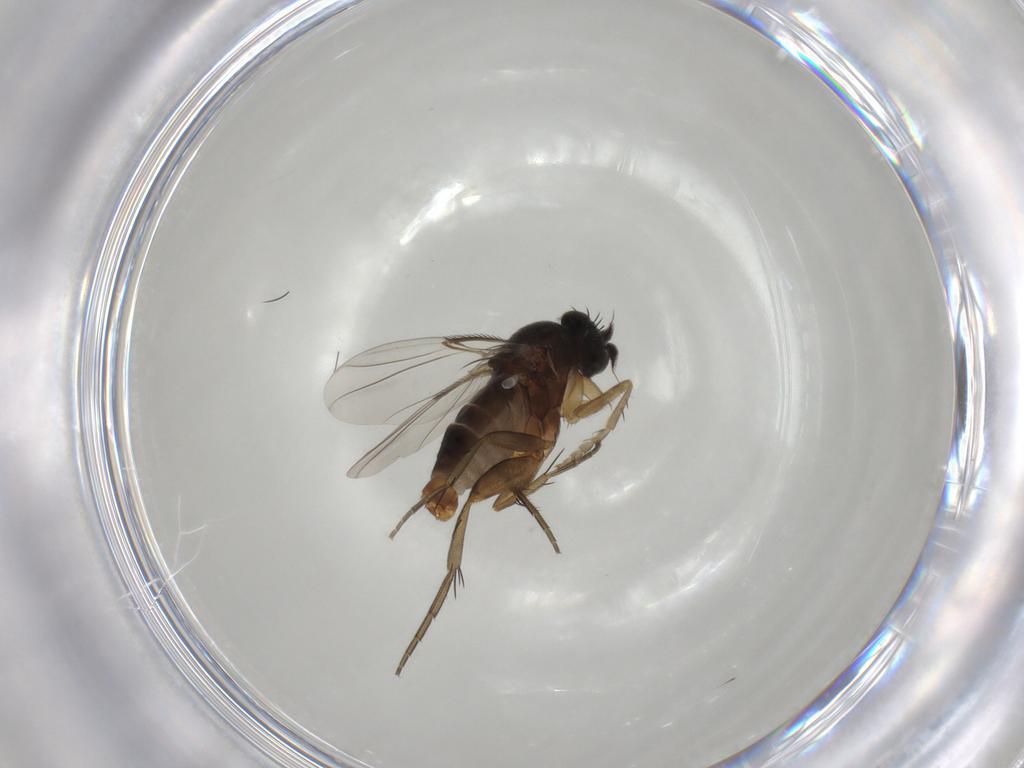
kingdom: Animalia
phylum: Arthropoda
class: Insecta
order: Diptera
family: Phoridae
